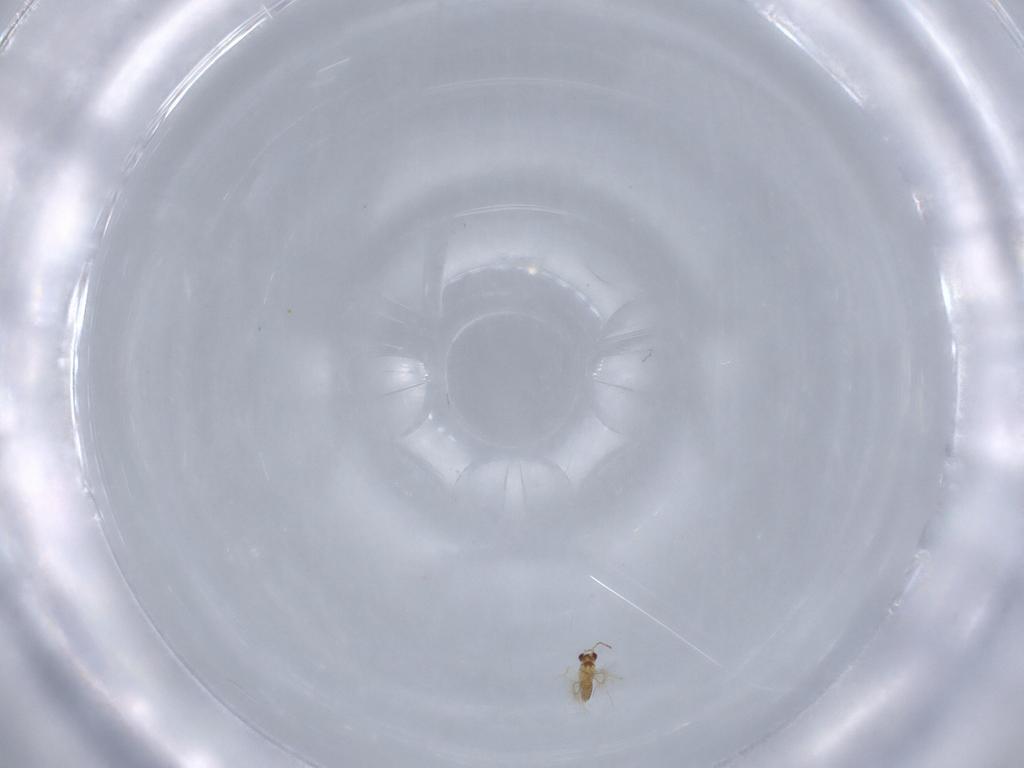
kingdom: Animalia
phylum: Arthropoda
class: Insecta
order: Hymenoptera
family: Mymaridae
